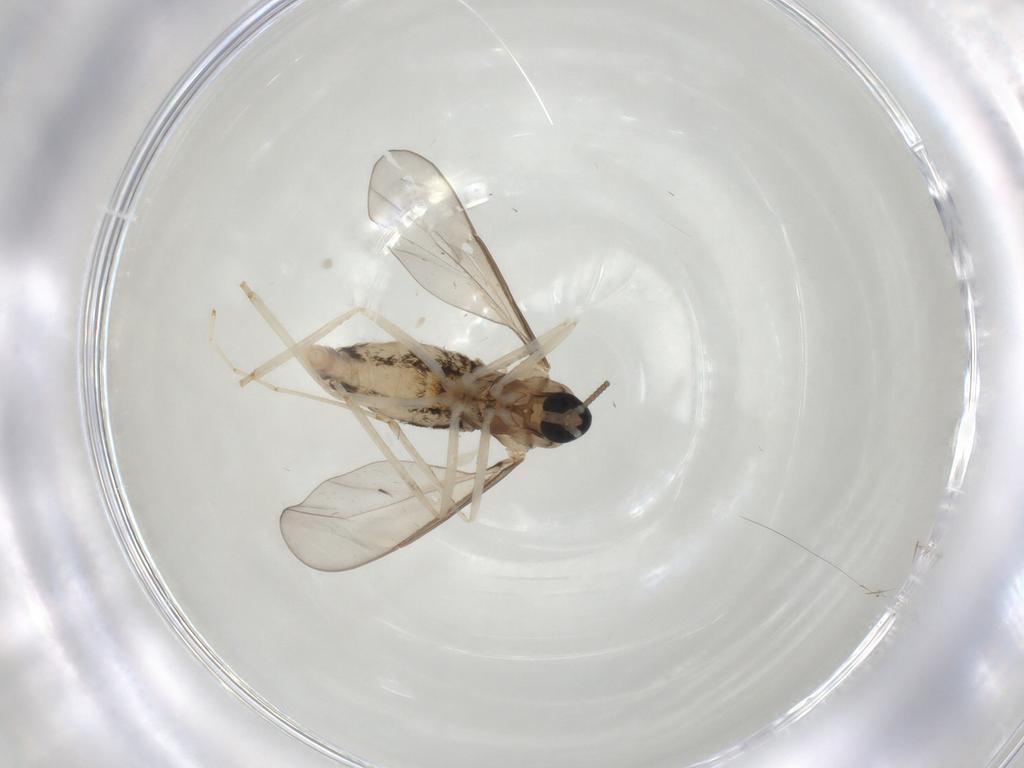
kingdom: Animalia
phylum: Arthropoda
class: Insecta
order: Diptera
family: Cecidomyiidae
